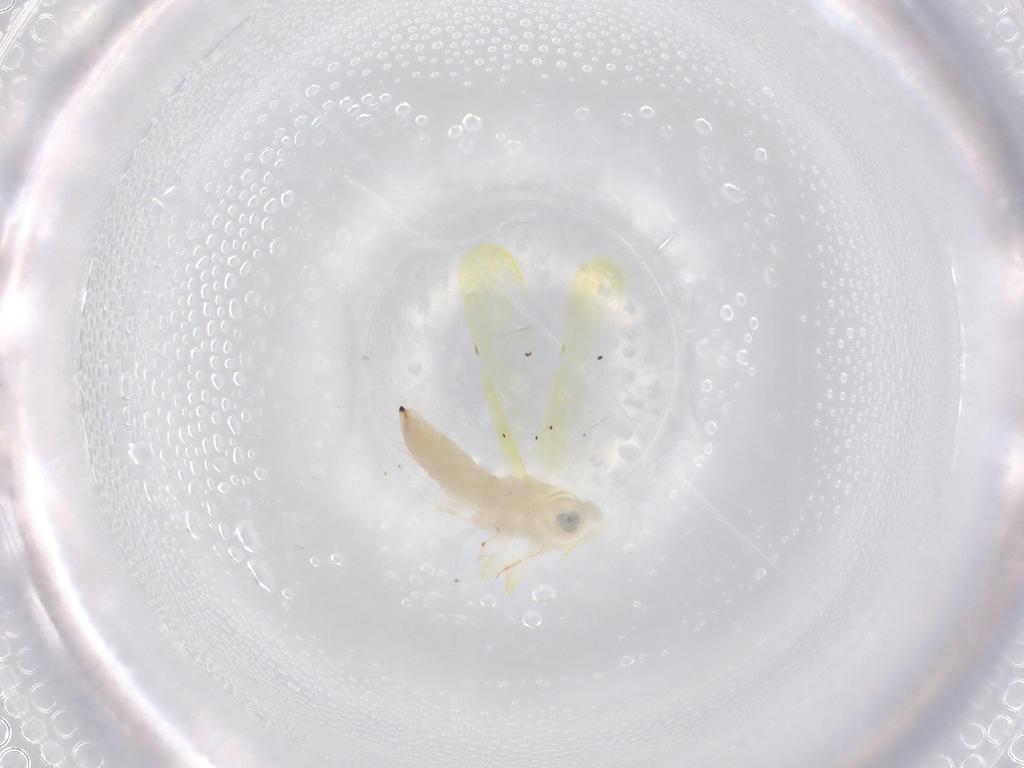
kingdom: Animalia
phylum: Arthropoda
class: Insecta
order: Hemiptera
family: Cicadellidae
